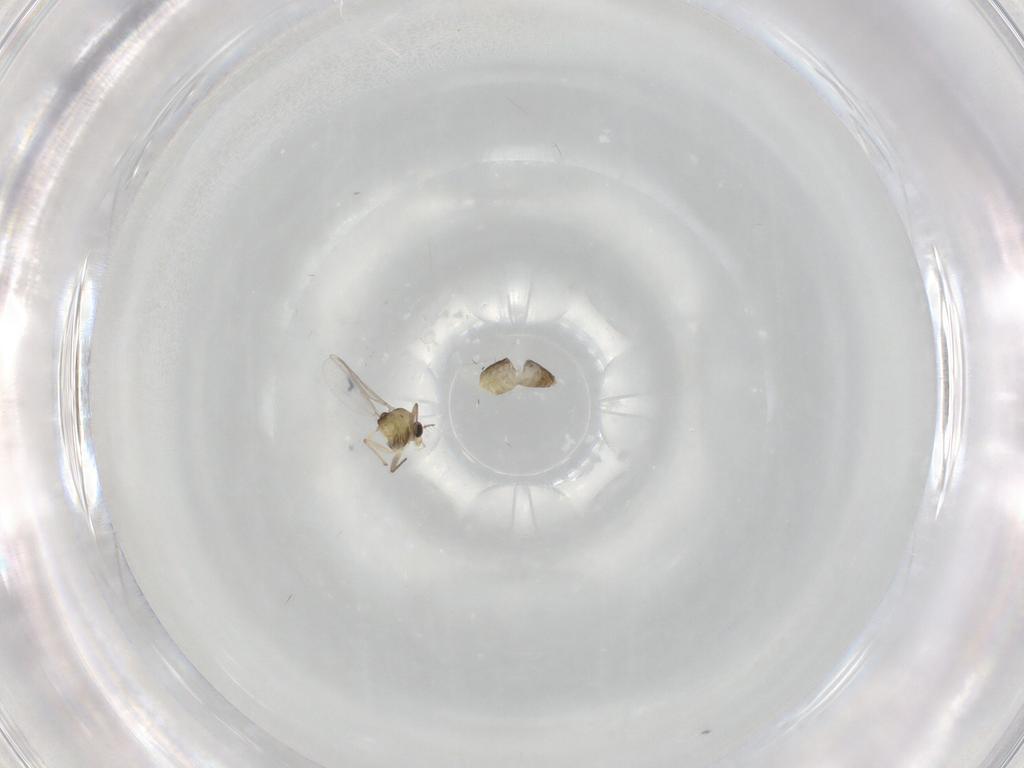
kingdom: Animalia
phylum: Arthropoda
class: Insecta
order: Diptera
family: Chironomidae
